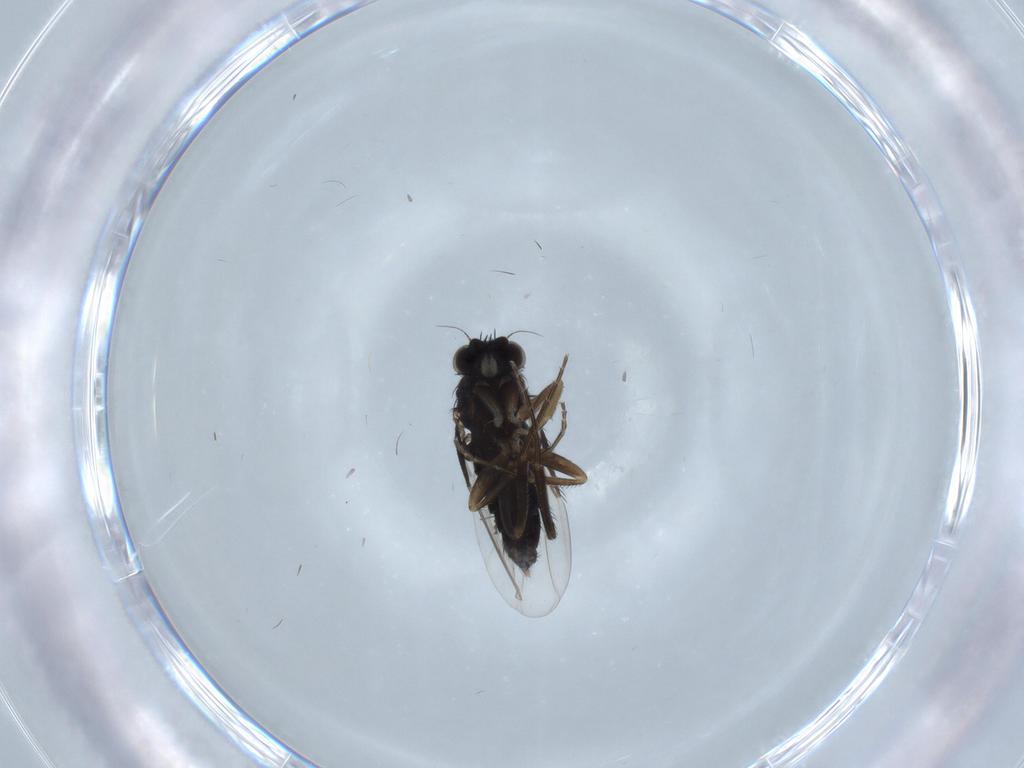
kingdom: Animalia
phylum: Arthropoda
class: Insecta
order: Diptera
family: Phoridae
